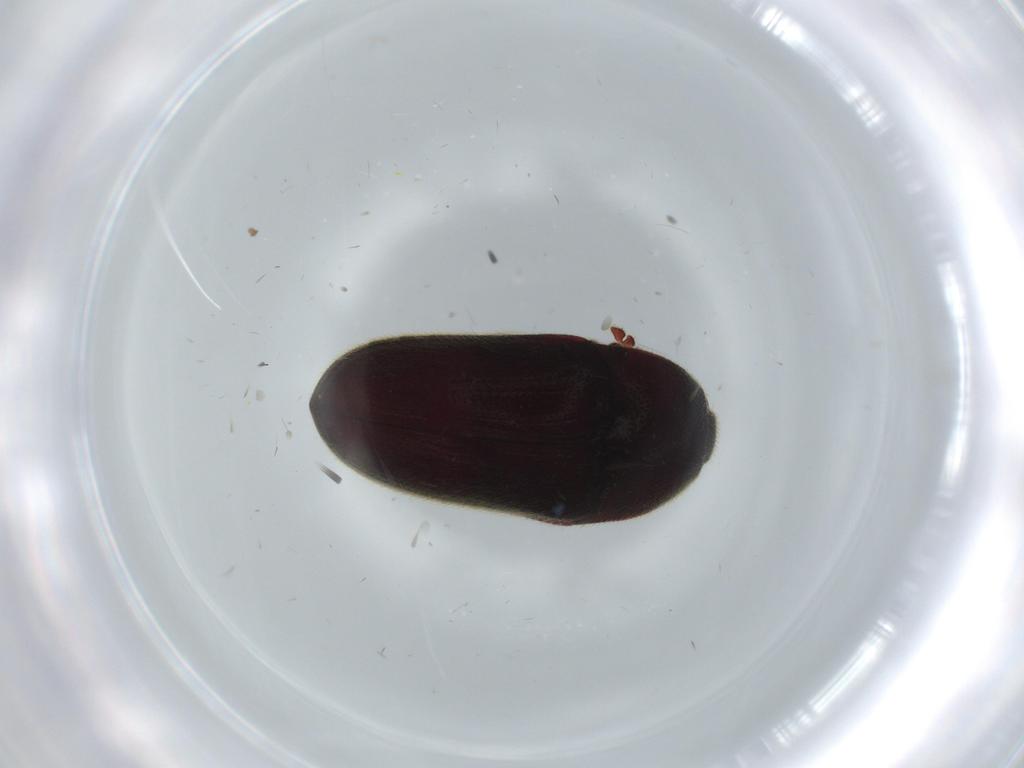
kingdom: Animalia
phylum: Arthropoda
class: Insecta
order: Coleoptera
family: Throscidae
